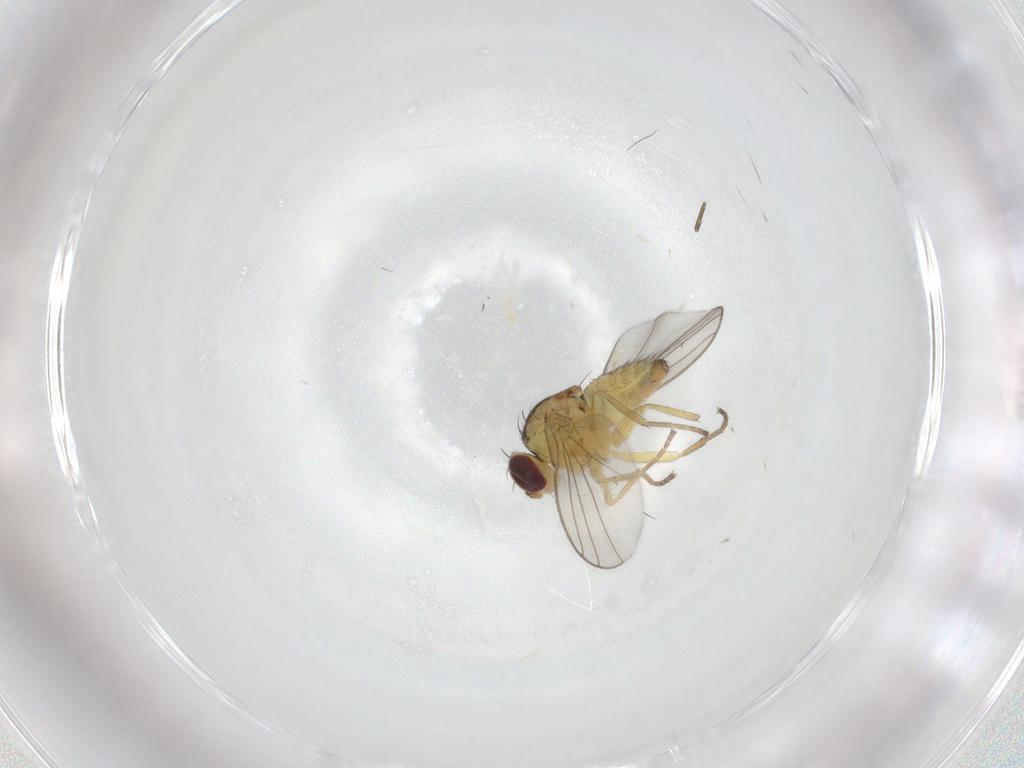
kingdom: Animalia
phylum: Arthropoda
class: Insecta
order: Diptera
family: Agromyzidae
